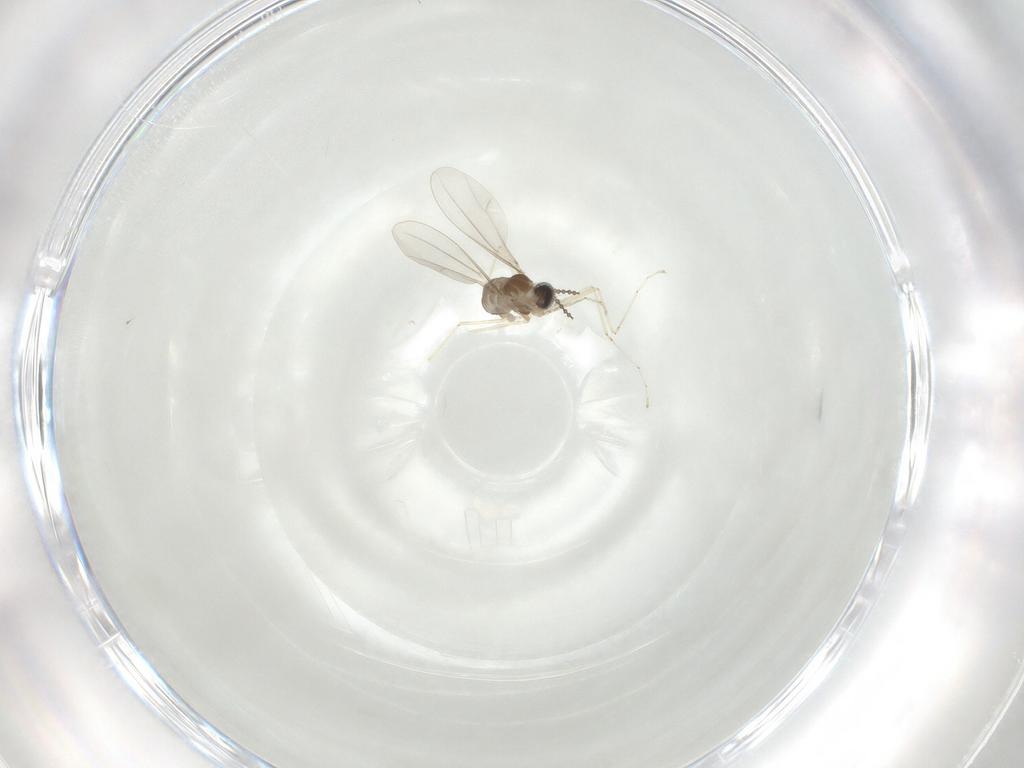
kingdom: Animalia
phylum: Arthropoda
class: Insecta
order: Diptera
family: Cecidomyiidae
